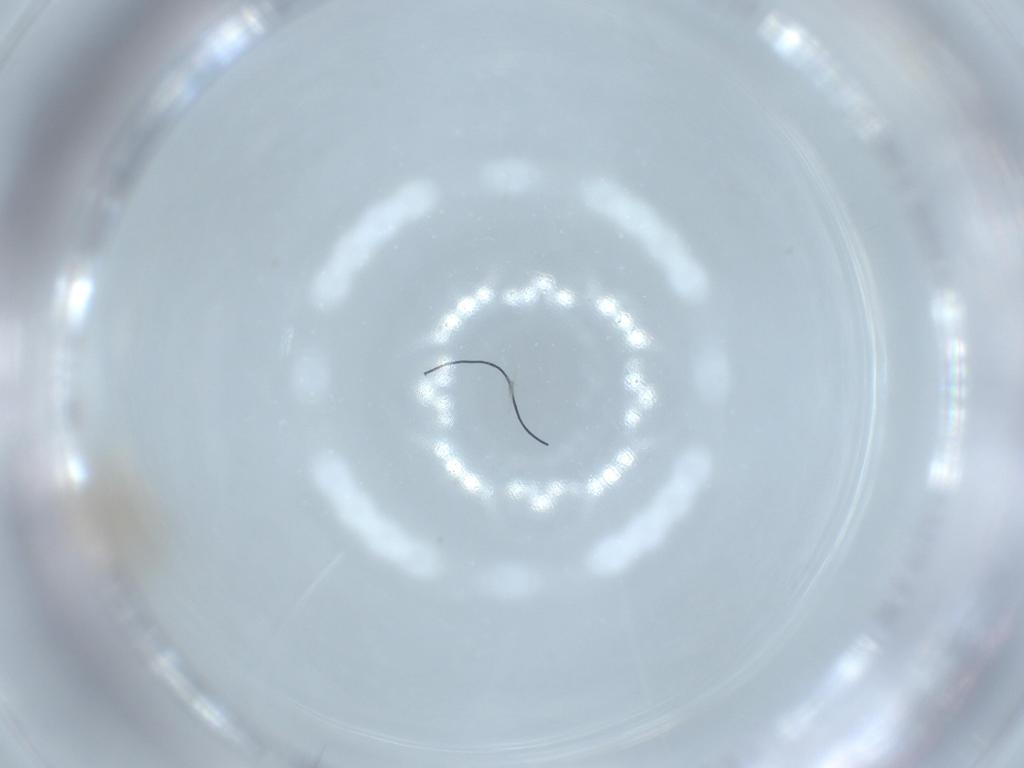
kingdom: Animalia
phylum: Arthropoda
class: Insecta
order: Diptera
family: Cecidomyiidae
